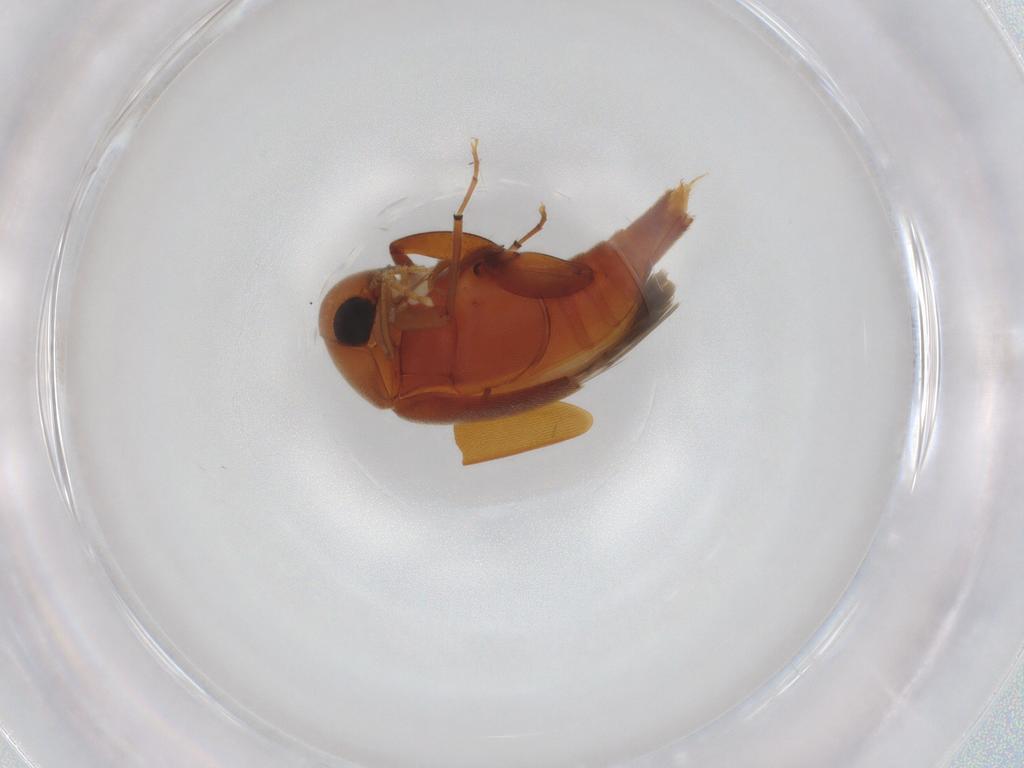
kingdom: Animalia
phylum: Arthropoda
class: Insecta
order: Coleoptera
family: Mordellidae
